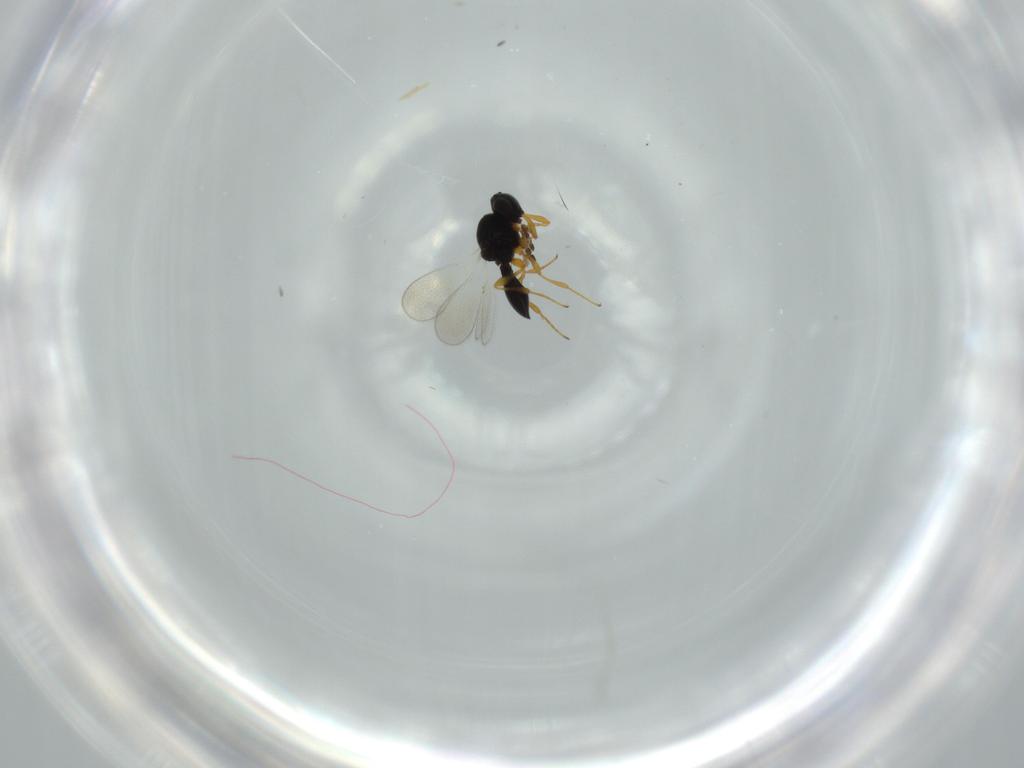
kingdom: Animalia
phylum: Arthropoda
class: Insecta
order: Hymenoptera
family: Platygastridae
